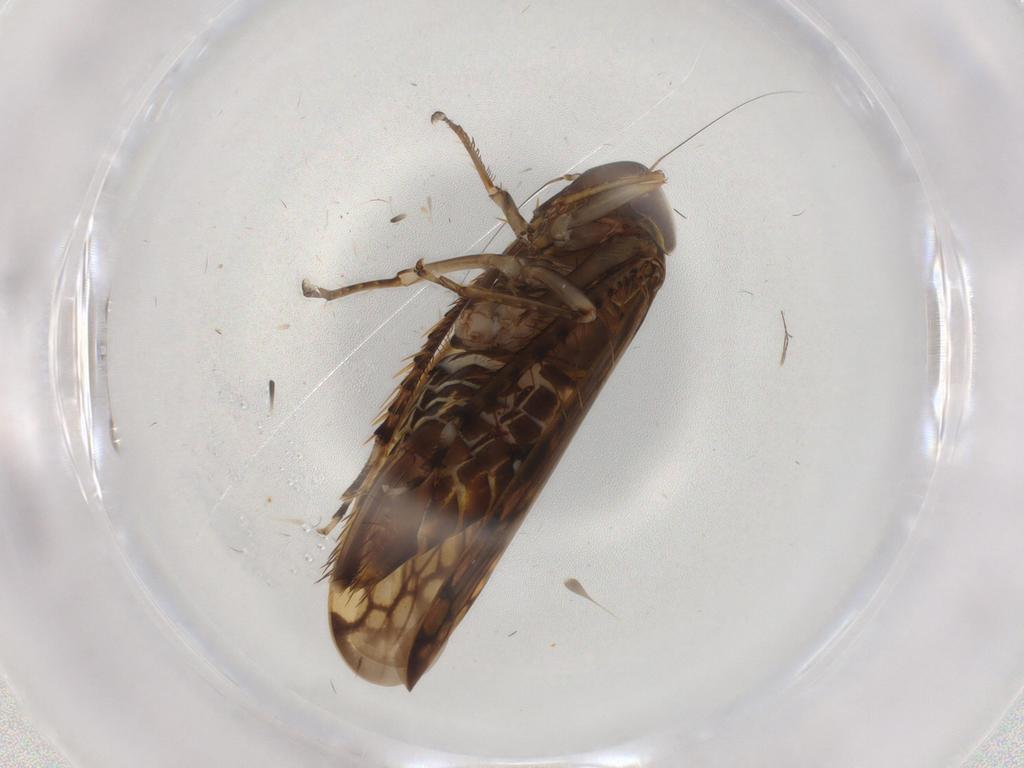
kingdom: Animalia
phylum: Arthropoda
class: Insecta
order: Hemiptera
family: Cicadellidae
